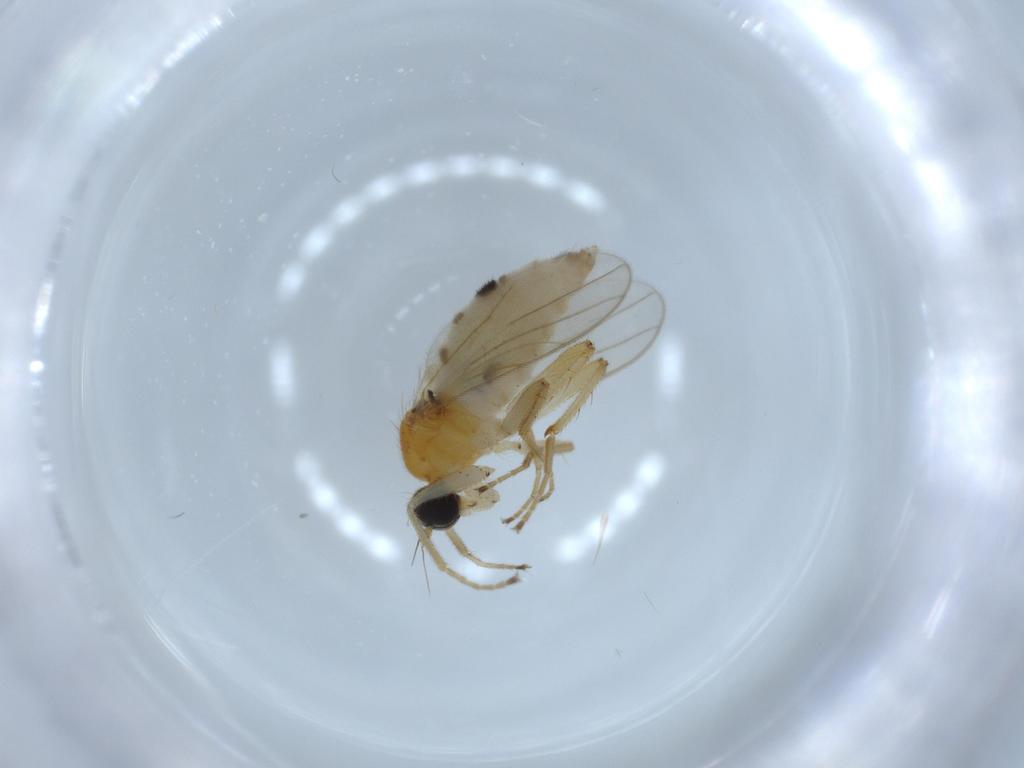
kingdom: Animalia
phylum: Arthropoda
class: Insecta
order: Diptera
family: Hybotidae
